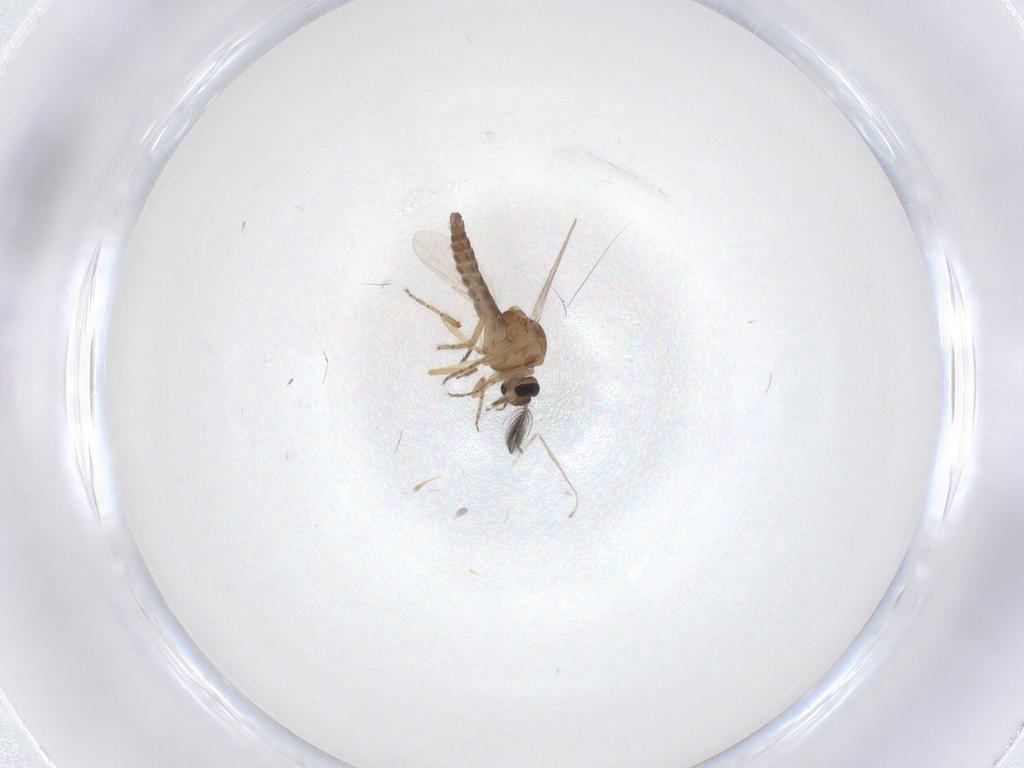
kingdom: Animalia
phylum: Arthropoda
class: Insecta
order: Diptera
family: Ceratopogonidae
